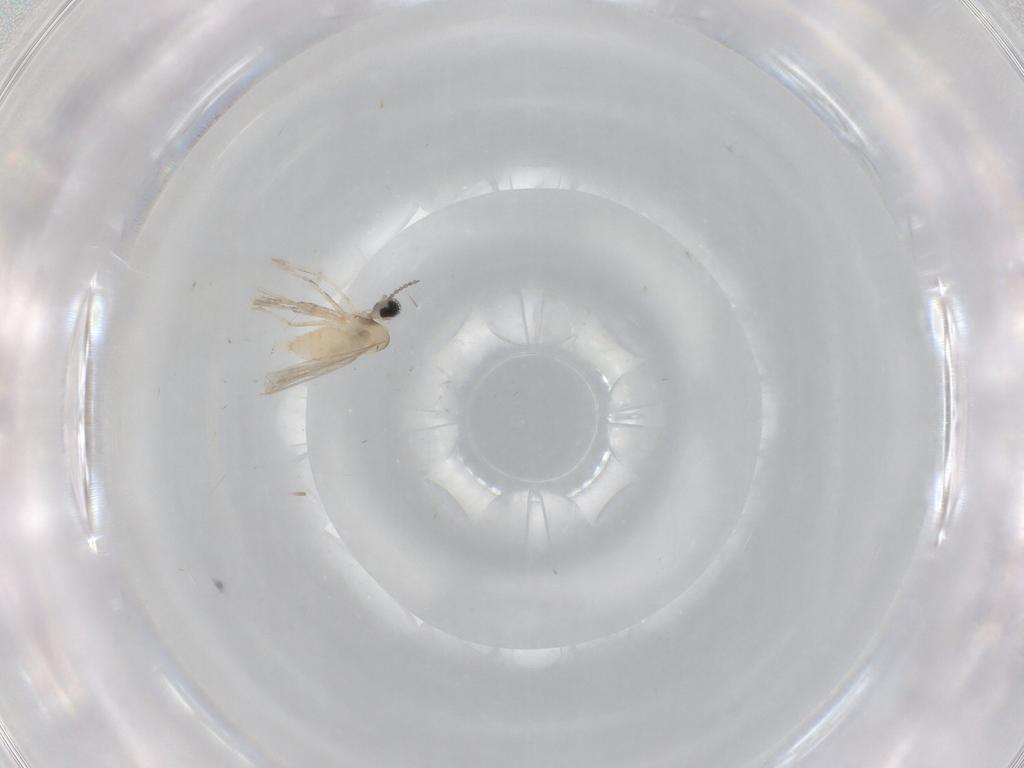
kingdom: Animalia
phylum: Arthropoda
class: Insecta
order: Diptera
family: Cecidomyiidae
